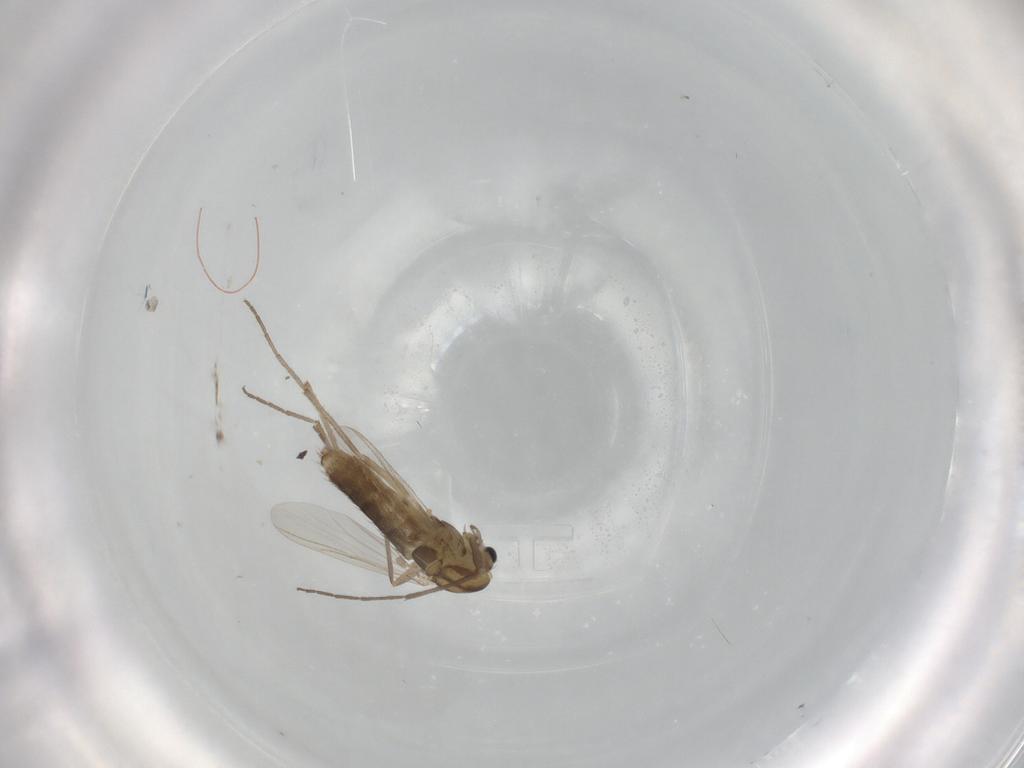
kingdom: Animalia
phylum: Arthropoda
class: Insecta
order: Diptera
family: Chironomidae
